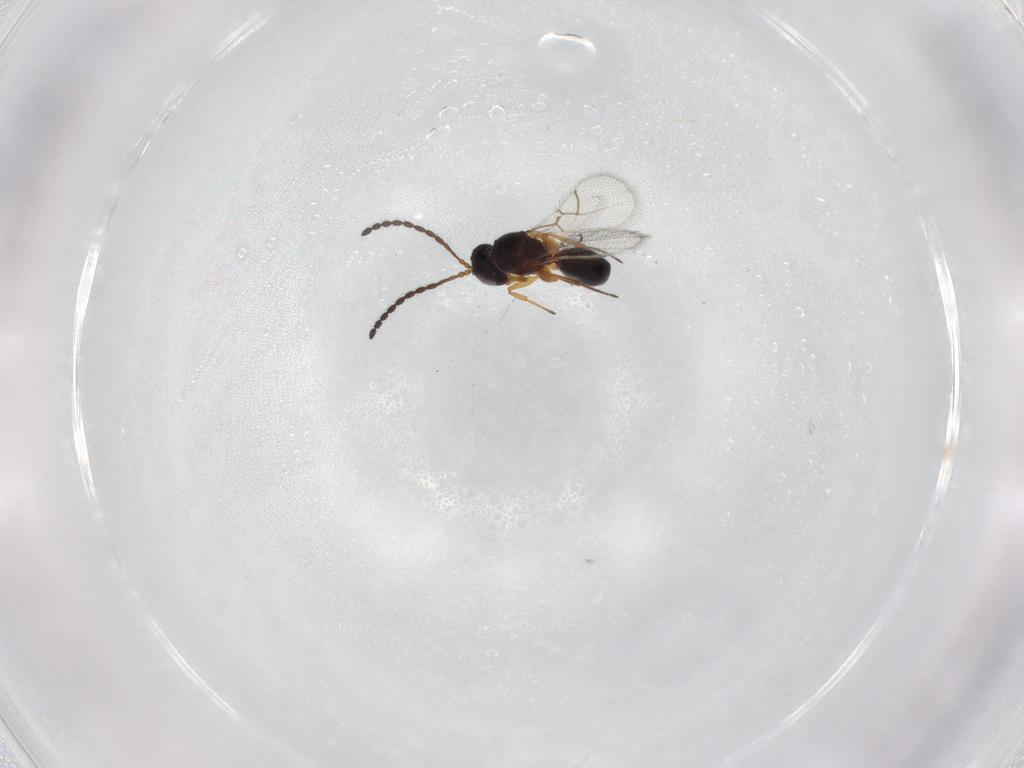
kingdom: Animalia
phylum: Arthropoda
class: Insecta
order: Hymenoptera
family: Figitidae
